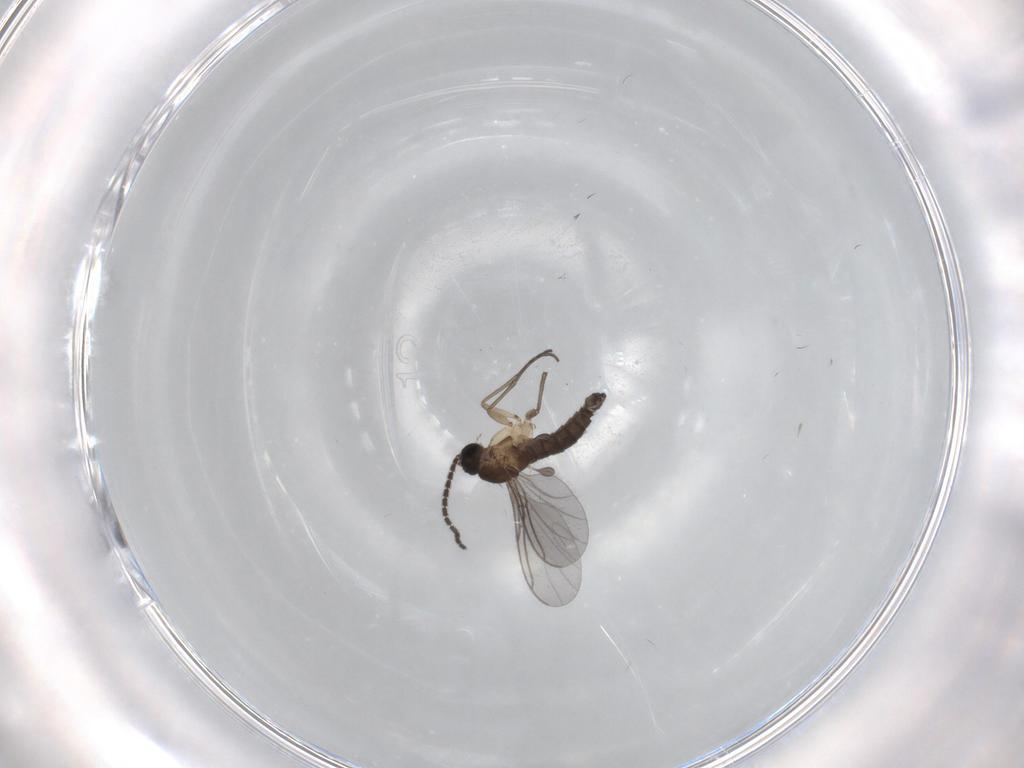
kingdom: Animalia
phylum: Arthropoda
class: Insecta
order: Diptera
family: Sciaridae
